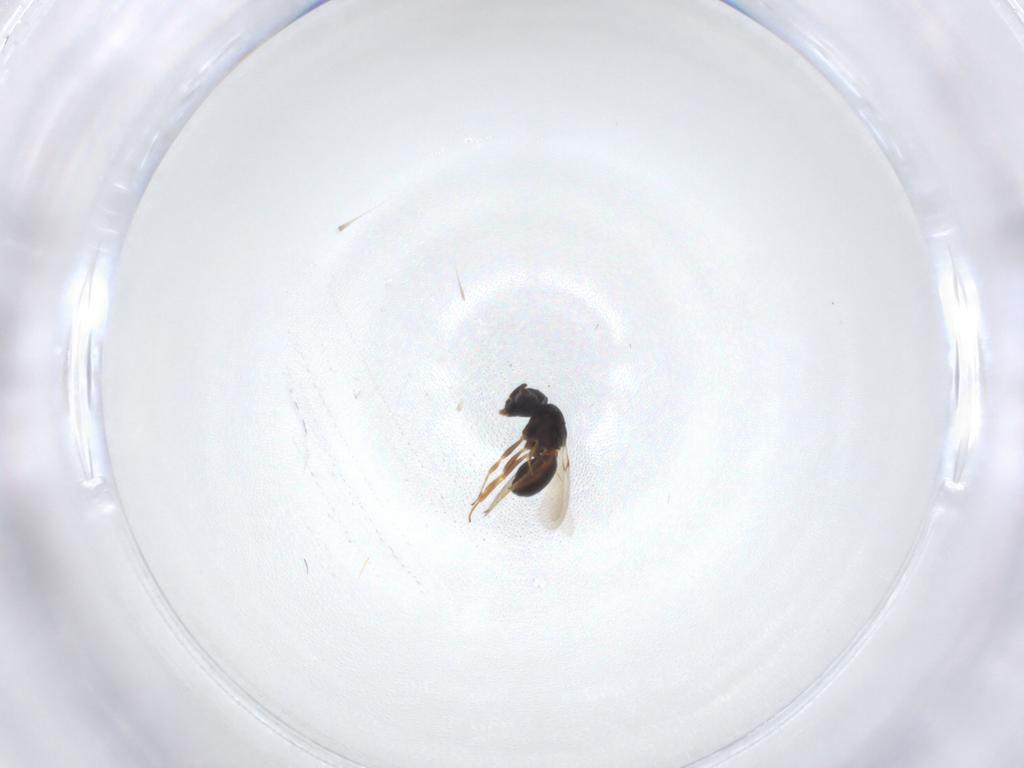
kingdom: Animalia
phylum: Arthropoda
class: Arachnida
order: Araneae
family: Pholcidae
